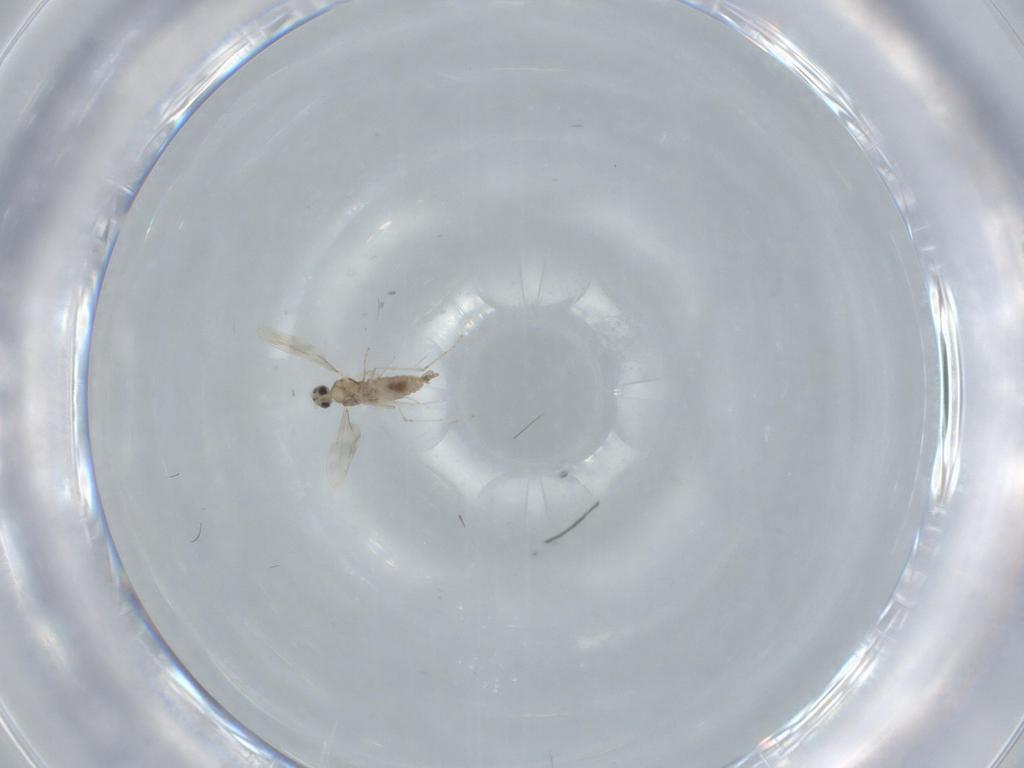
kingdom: Animalia
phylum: Arthropoda
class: Insecta
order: Diptera
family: Cecidomyiidae
